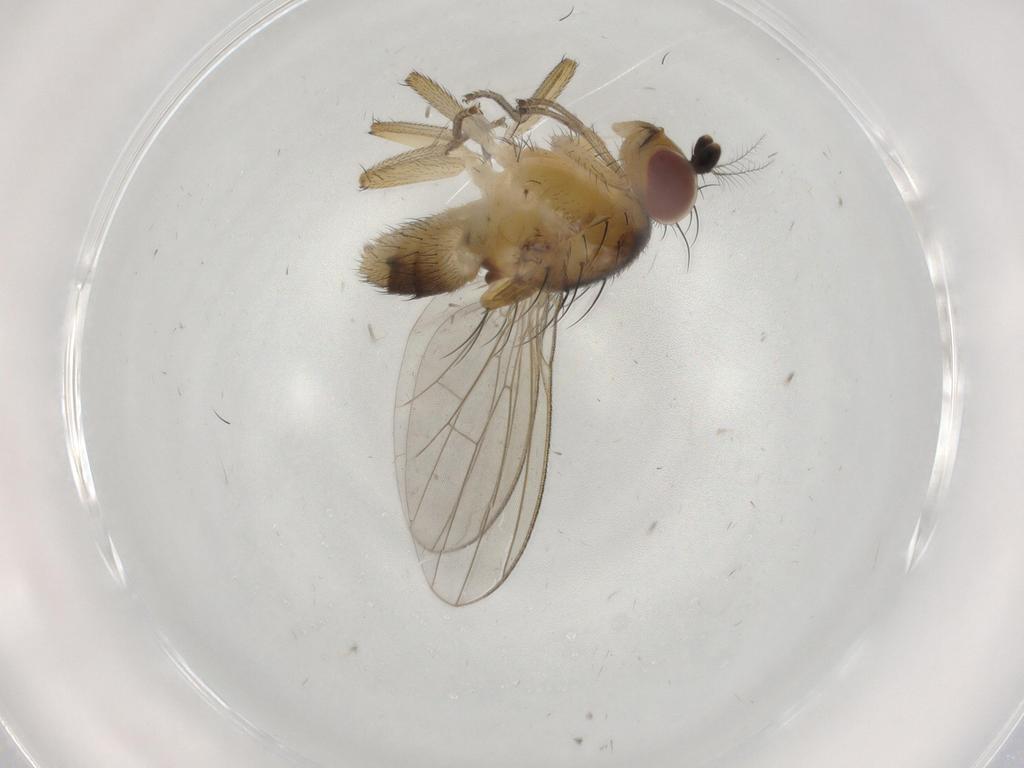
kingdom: Animalia
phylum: Arthropoda
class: Insecta
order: Diptera
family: Lauxaniidae
